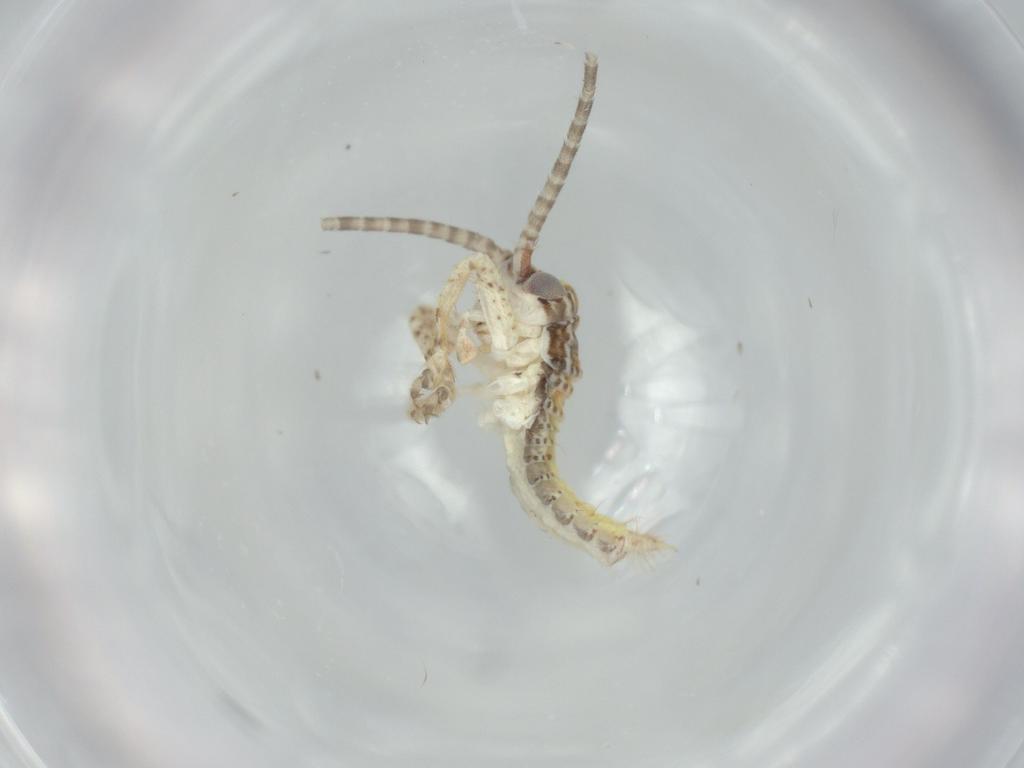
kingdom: Animalia
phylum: Arthropoda
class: Insecta
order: Orthoptera
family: Gryllidae
